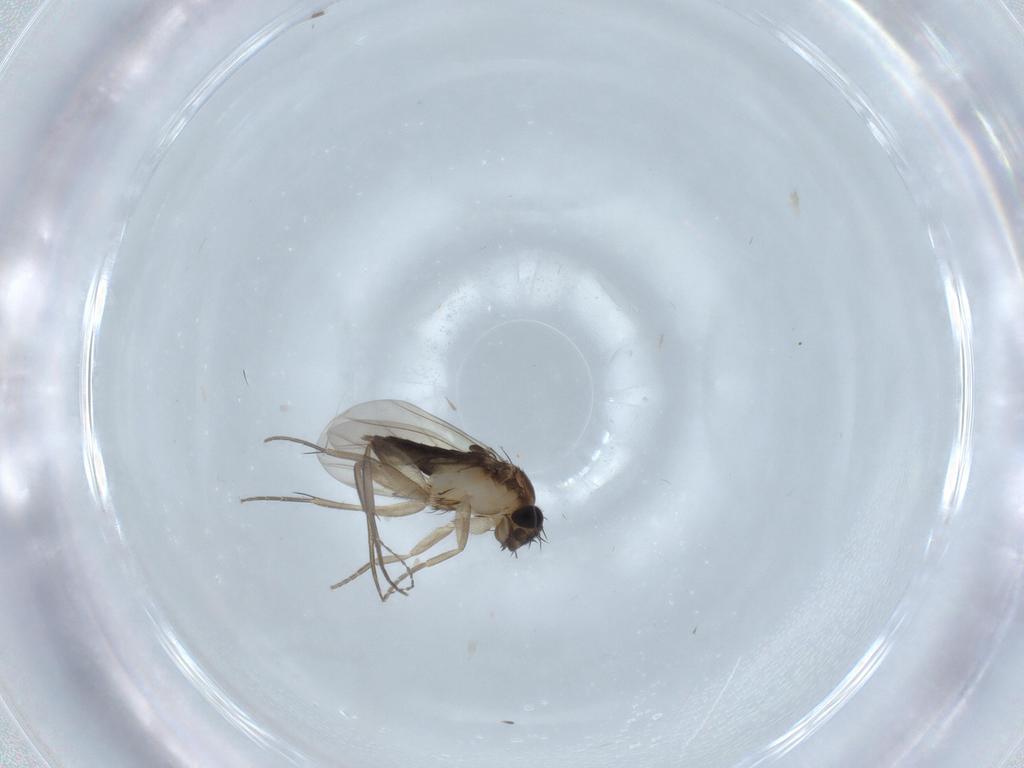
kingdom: Animalia
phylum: Arthropoda
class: Insecta
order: Diptera
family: Phoridae
